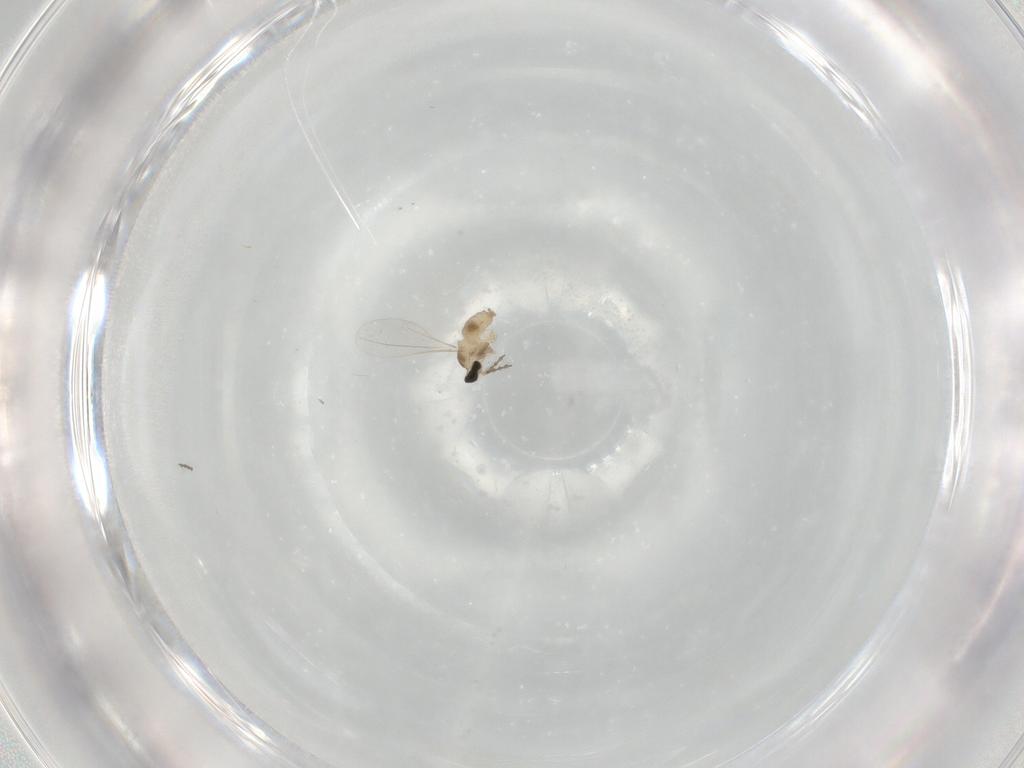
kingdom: Animalia
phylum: Arthropoda
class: Insecta
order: Diptera
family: Cecidomyiidae
